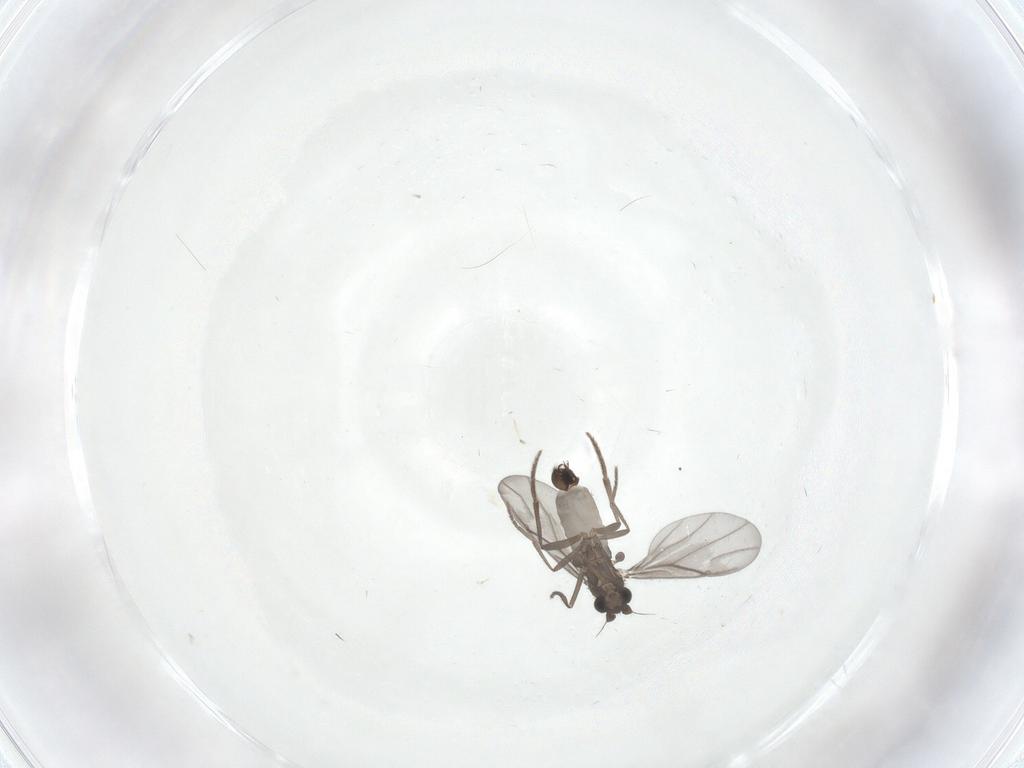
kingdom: Animalia
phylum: Arthropoda
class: Insecta
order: Diptera
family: Phoridae
